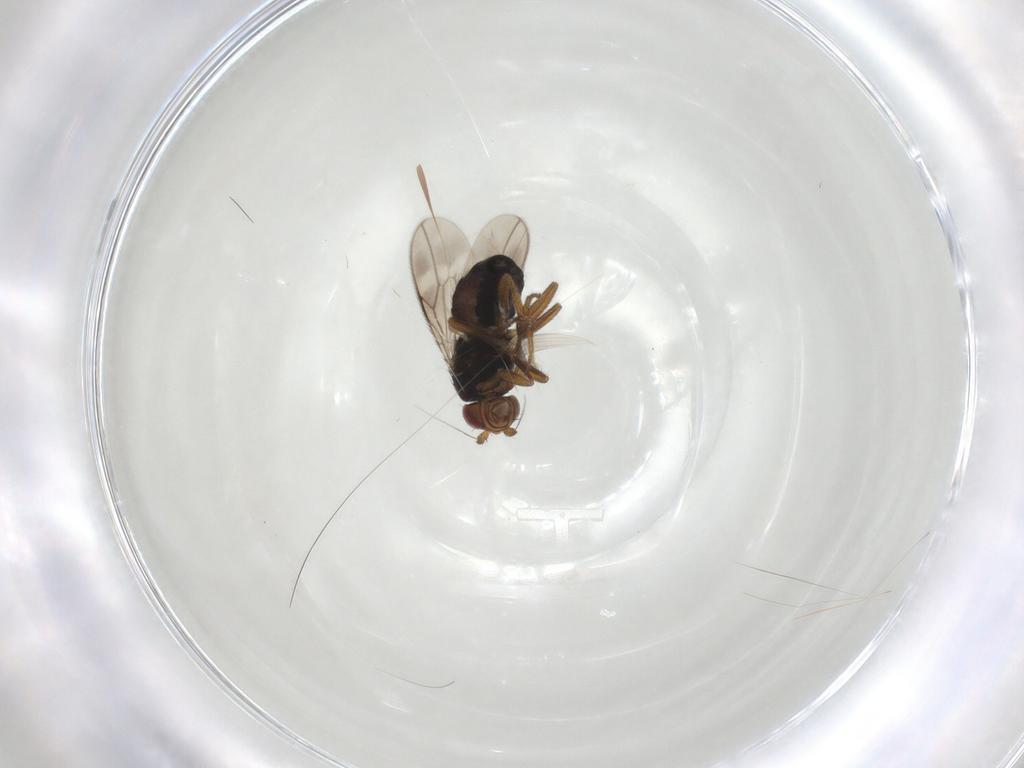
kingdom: Animalia
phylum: Arthropoda
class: Insecta
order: Diptera
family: Sphaeroceridae
